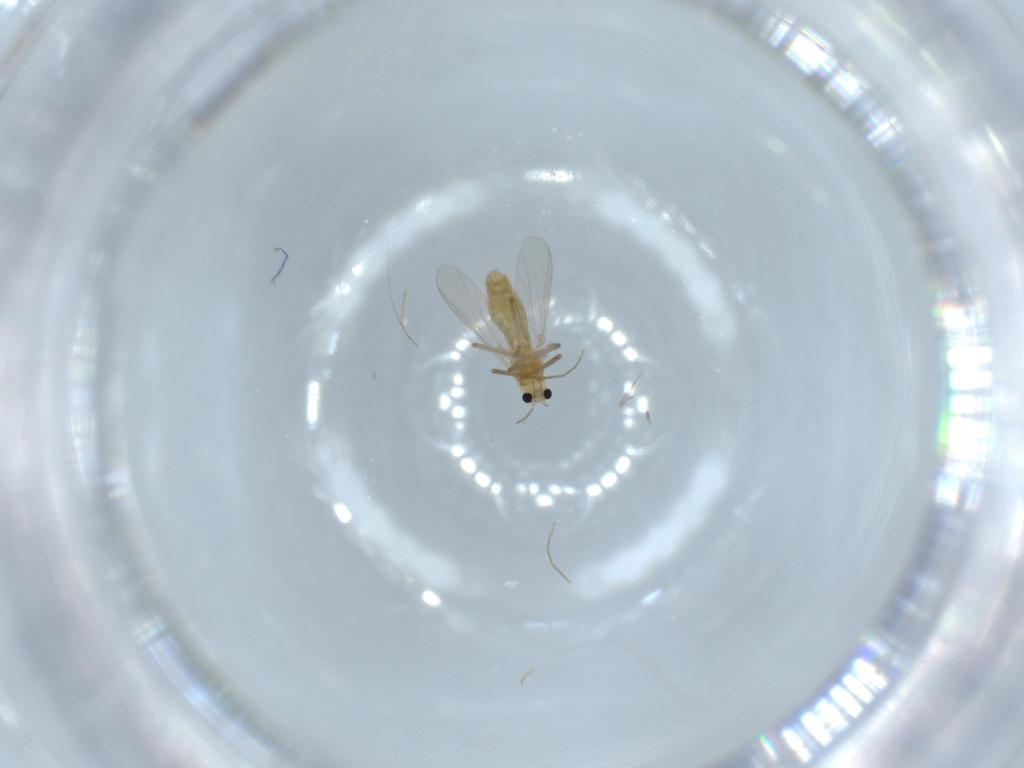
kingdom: Animalia
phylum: Arthropoda
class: Insecta
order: Diptera
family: Chironomidae
